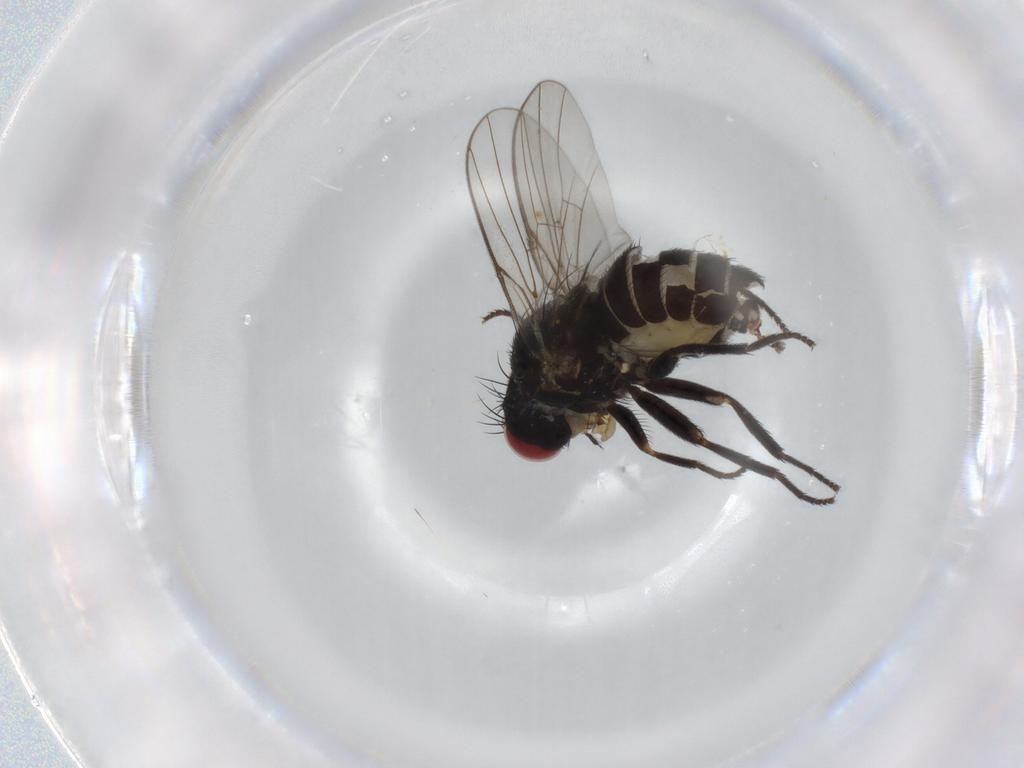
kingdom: Animalia
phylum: Arthropoda
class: Insecta
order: Diptera
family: Agromyzidae
